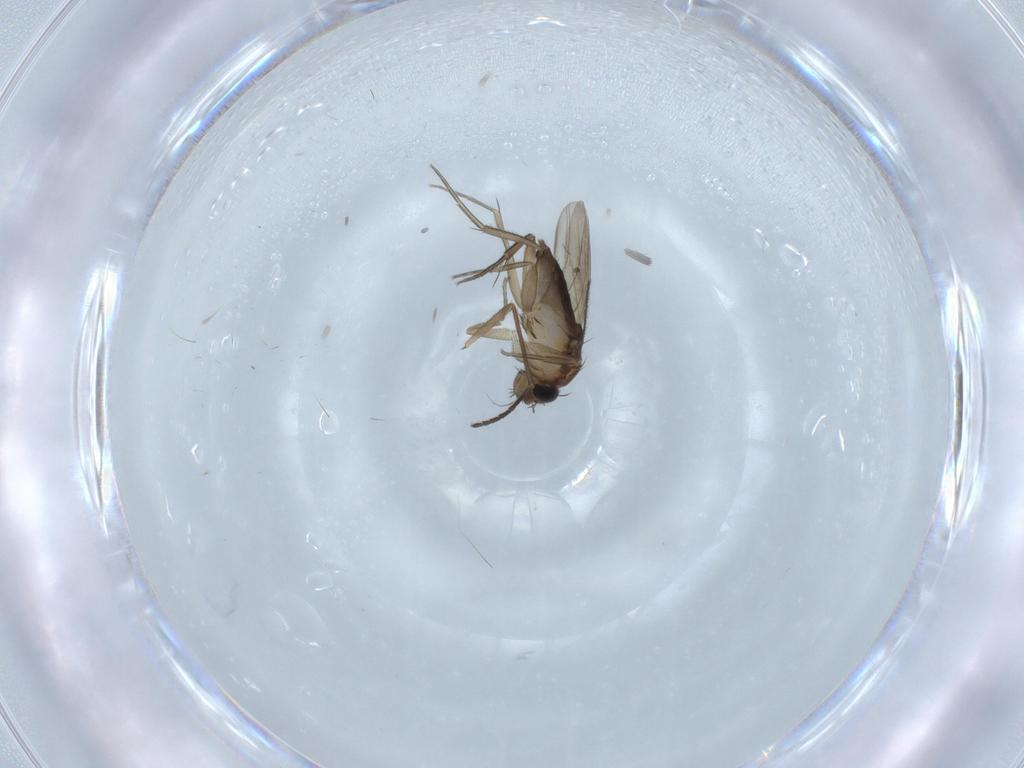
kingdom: Animalia
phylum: Arthropoda
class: Insecta
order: Diptera
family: Phoridae
